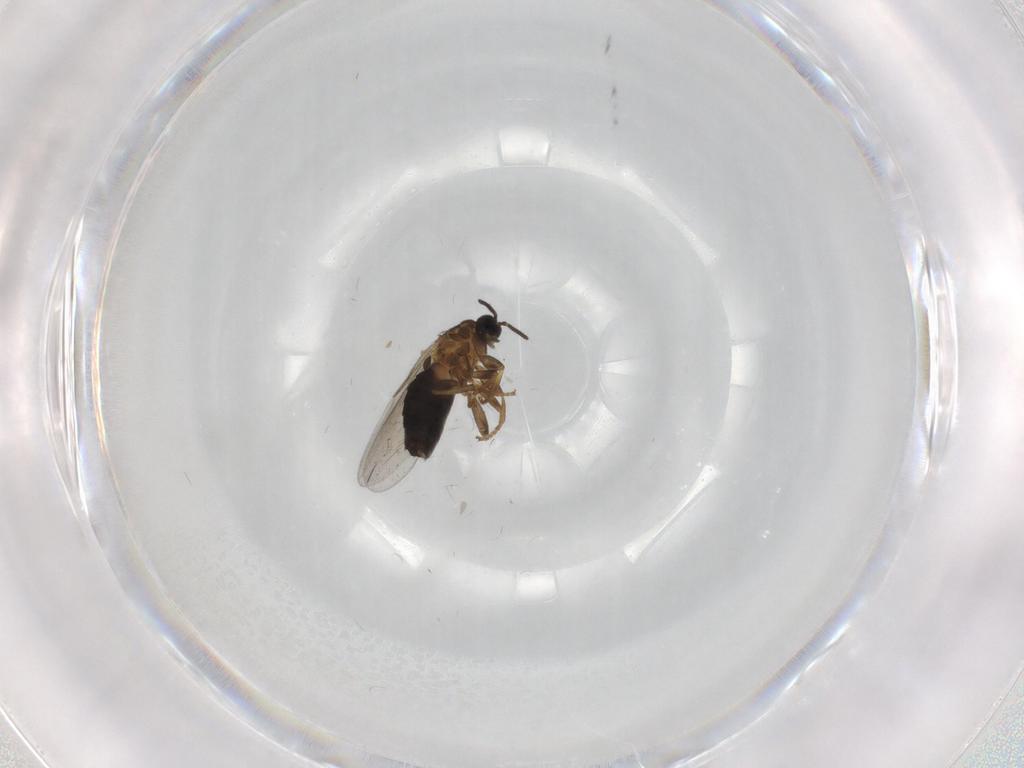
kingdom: Animalia
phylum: Arthropoda
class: Insecta
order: Diptera
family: Scatopsidae
